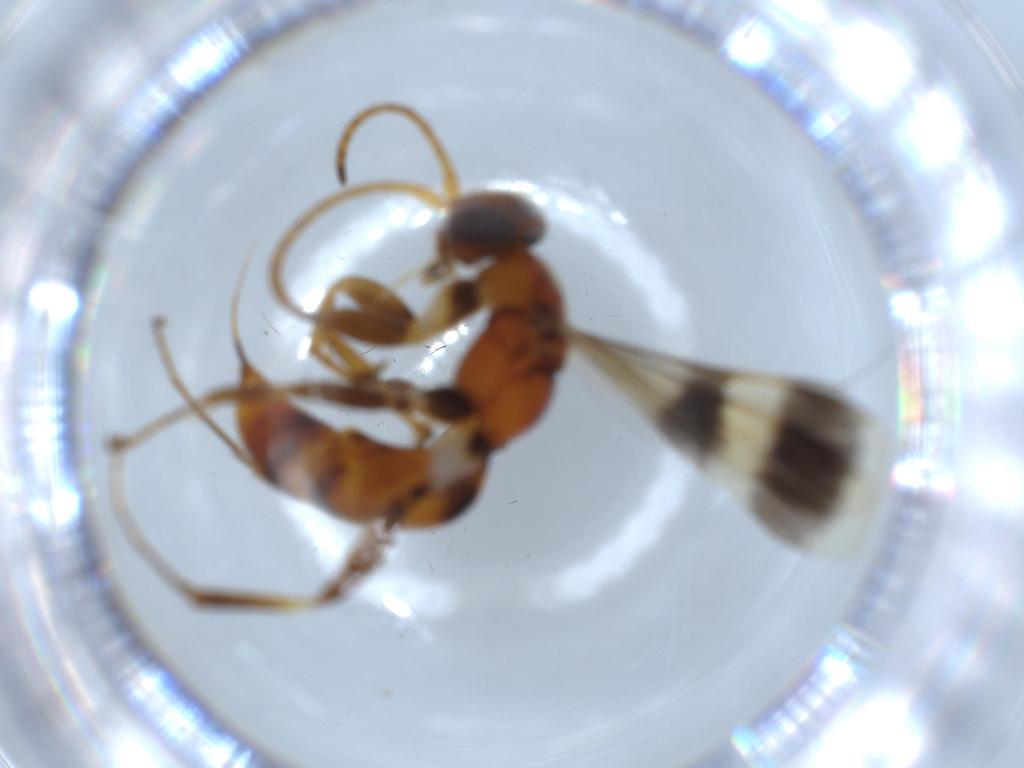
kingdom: Animalia
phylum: Arthropoda
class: Insecta
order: Hymenoptera
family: Pompilidae
